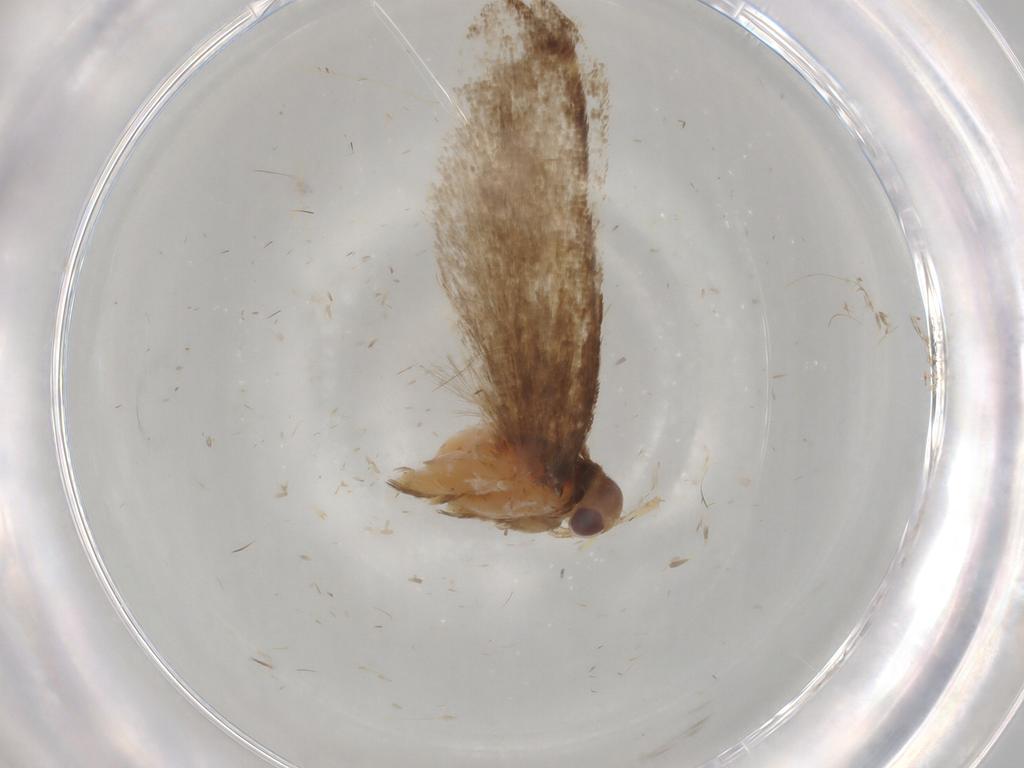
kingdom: Animalia
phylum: Arthropoda
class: Insecta
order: Lepidoptera
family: Gelechiidae
